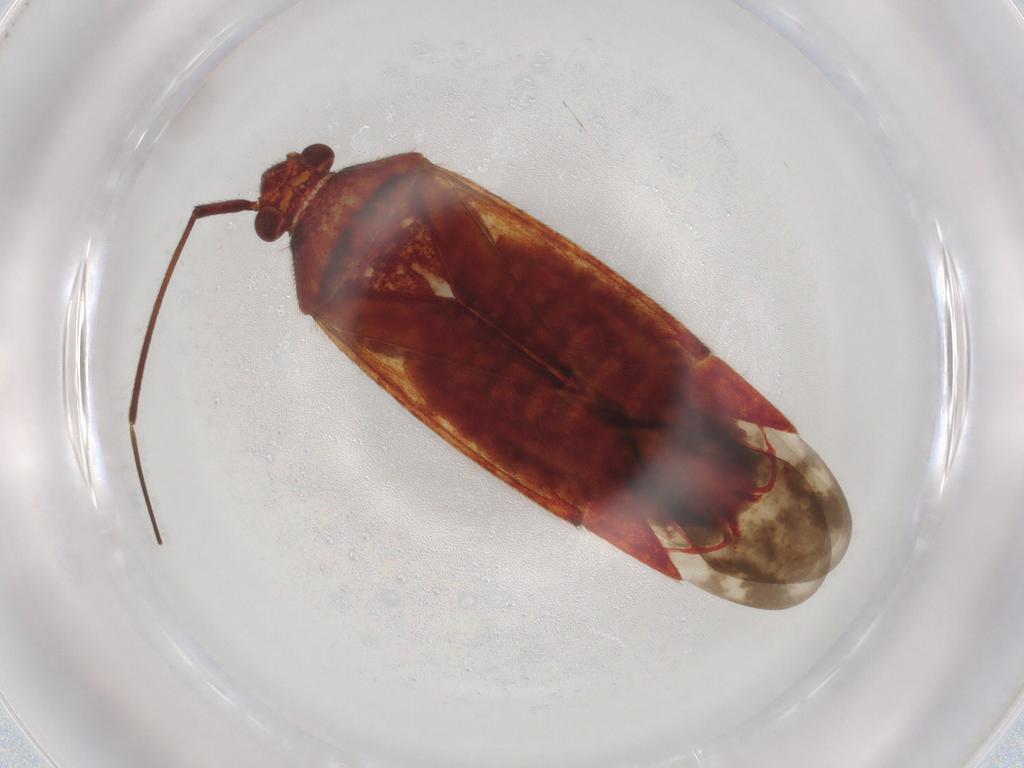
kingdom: Animalia
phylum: Arthropoda
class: Insecta
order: Hemiptera
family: Miridae
